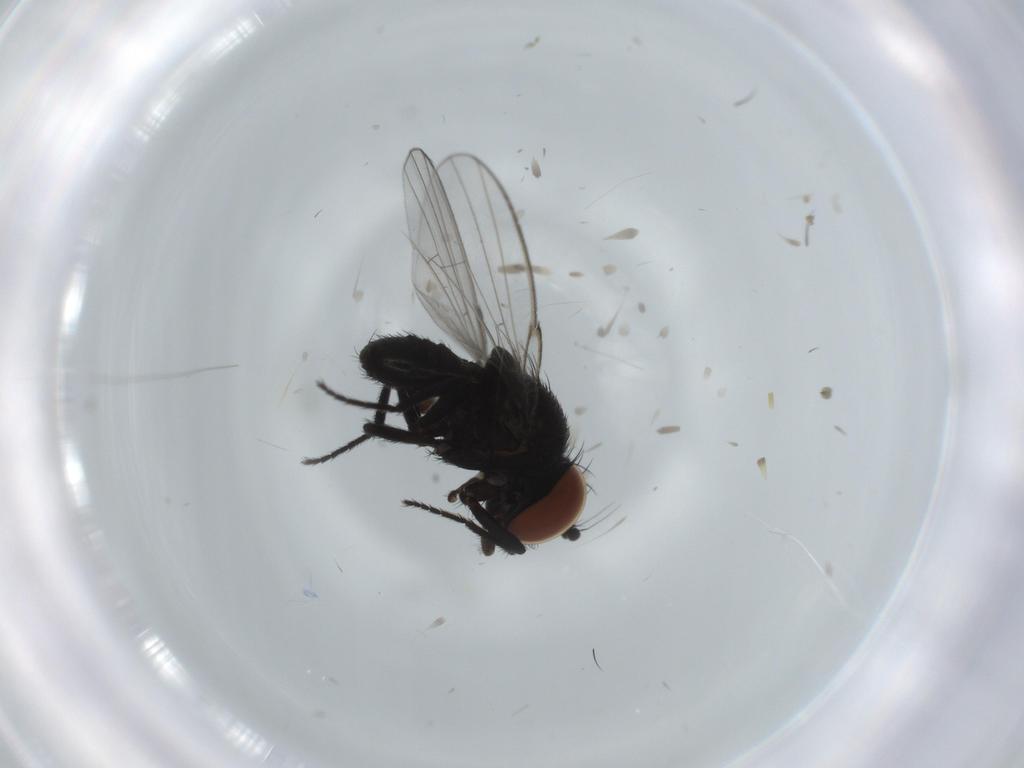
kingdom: Animalia
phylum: Arthropoda
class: Insecta
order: Diptera
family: Milichiidae
